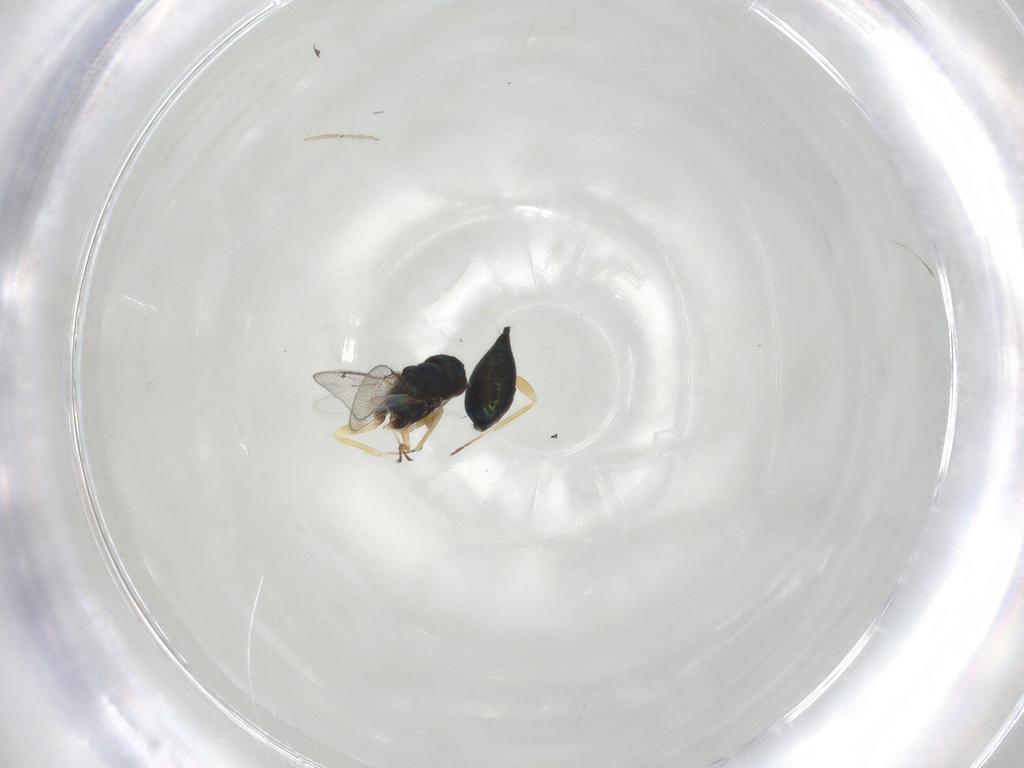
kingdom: Animalia
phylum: Arthropoda
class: Insecta
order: Hymenoptera
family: Eulophidae
